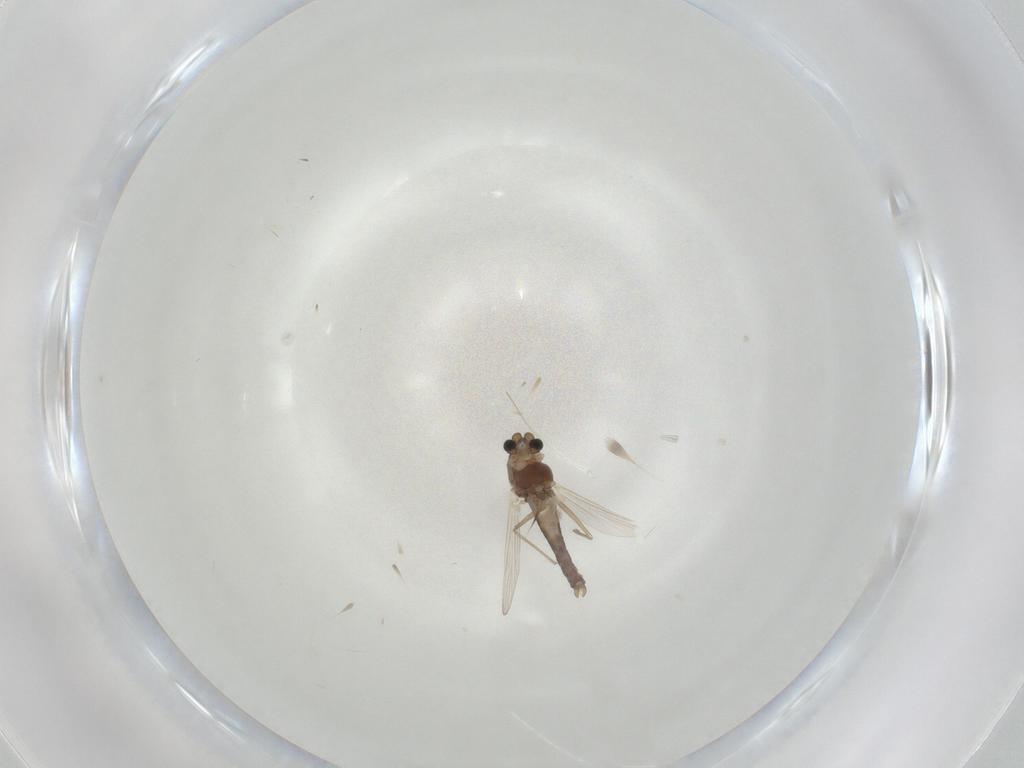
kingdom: Animalia
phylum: Arthropoda
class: Insecta
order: Diptera
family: Chironomidae
